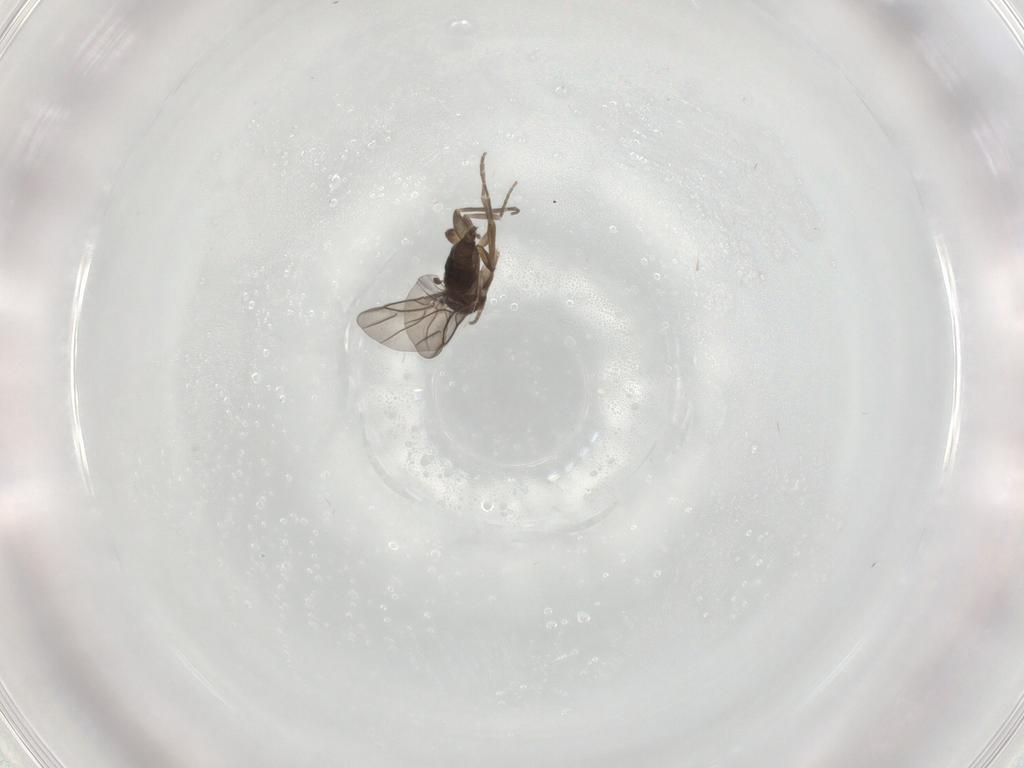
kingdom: Animalia
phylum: Arthropoda
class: Insecta
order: Diptera
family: Phoridae
